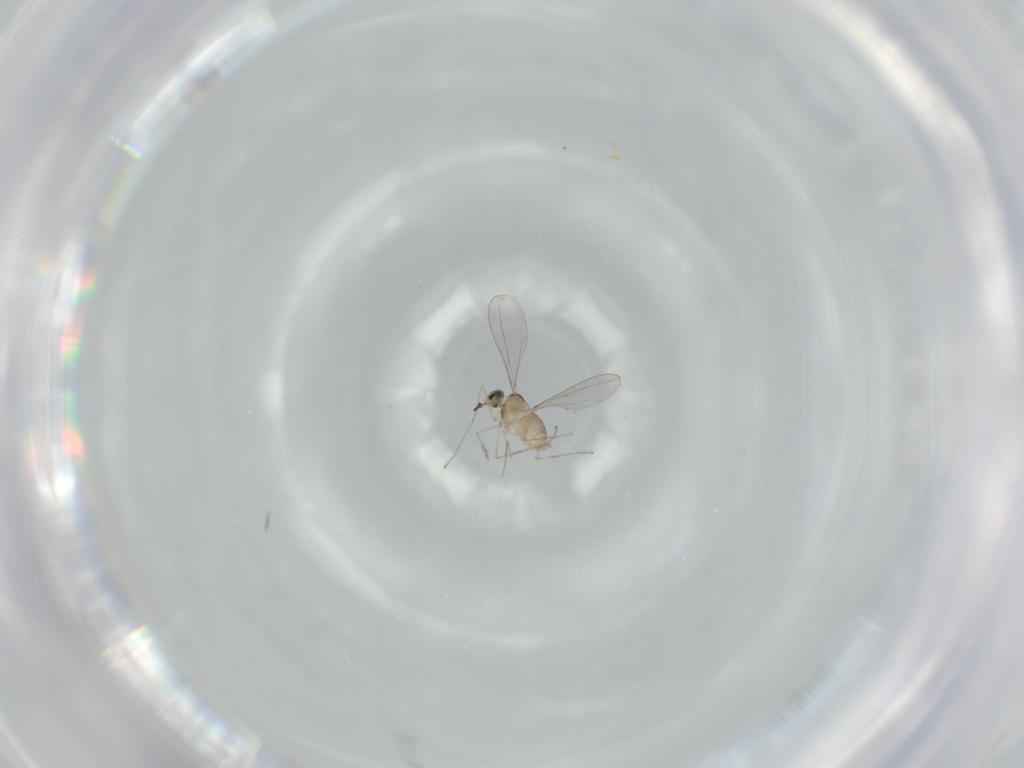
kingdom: Animalia
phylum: Arthropoda
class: Insecta
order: Diptera
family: Cecidomyiidae
